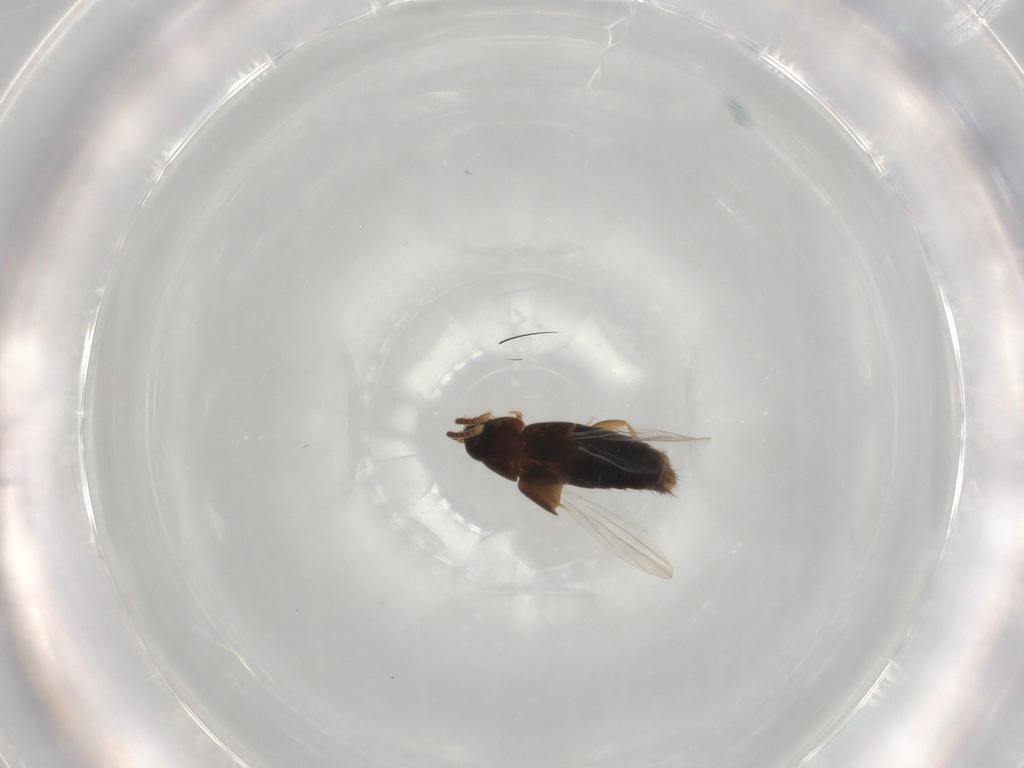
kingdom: Animalia
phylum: Arthropoda
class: Insecta
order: Coleoptera
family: Staphylinidae
